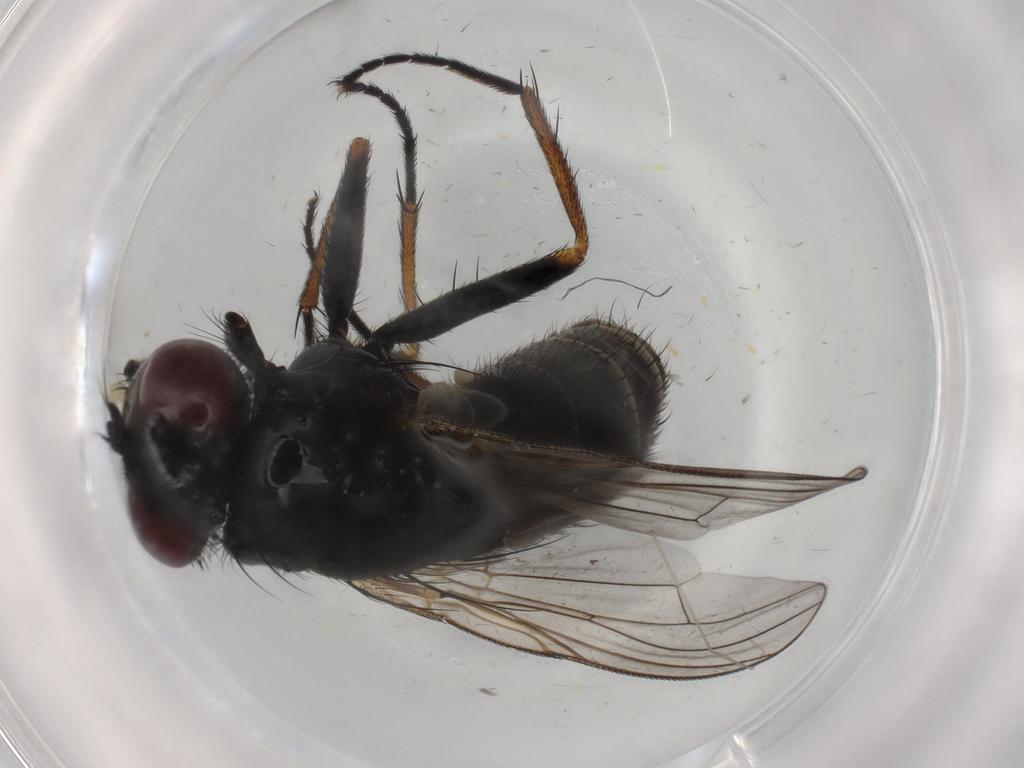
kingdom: Animalia
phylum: Arthropoda
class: Insecta
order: Diptera
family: Muscidae
